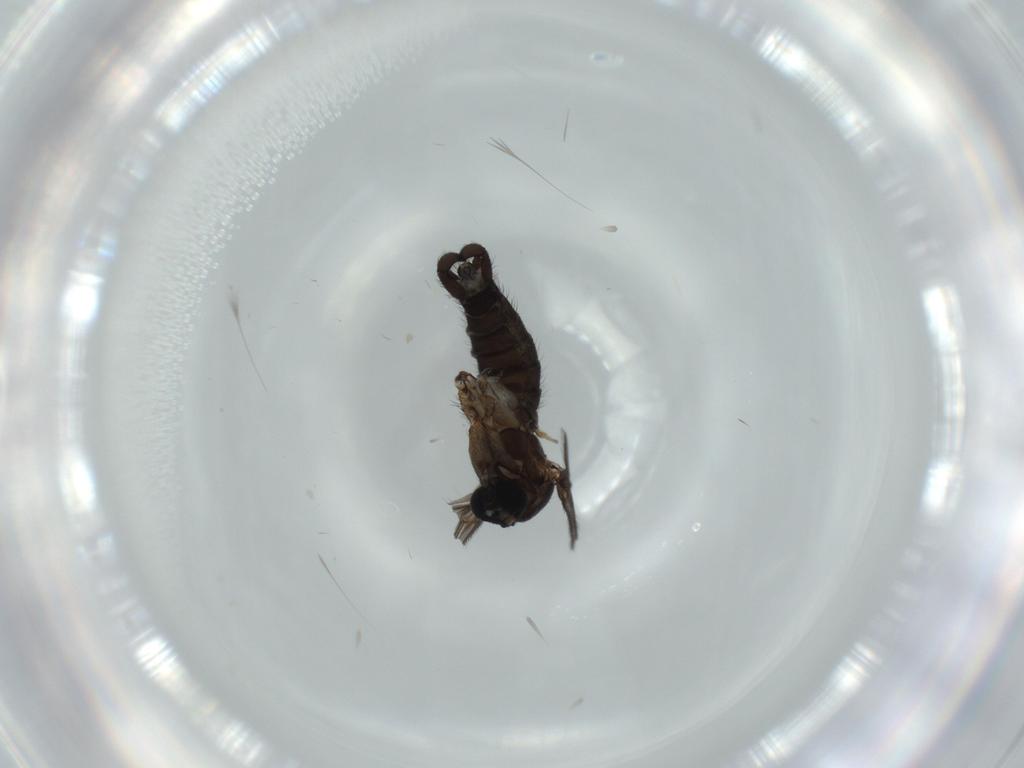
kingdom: Animalia
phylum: Arthropoda
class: Insecta
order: Diptera
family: Sciaridae
